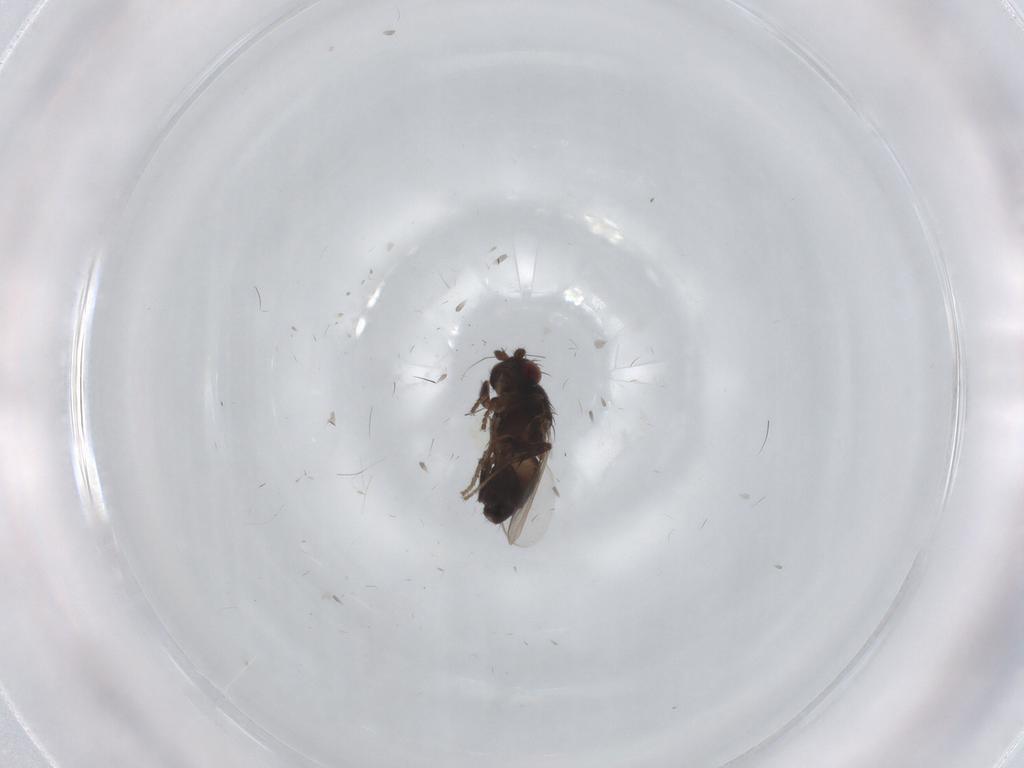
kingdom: Animalia
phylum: Arthropoda
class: Insecta
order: Diptera
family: Sphaeroceridae
